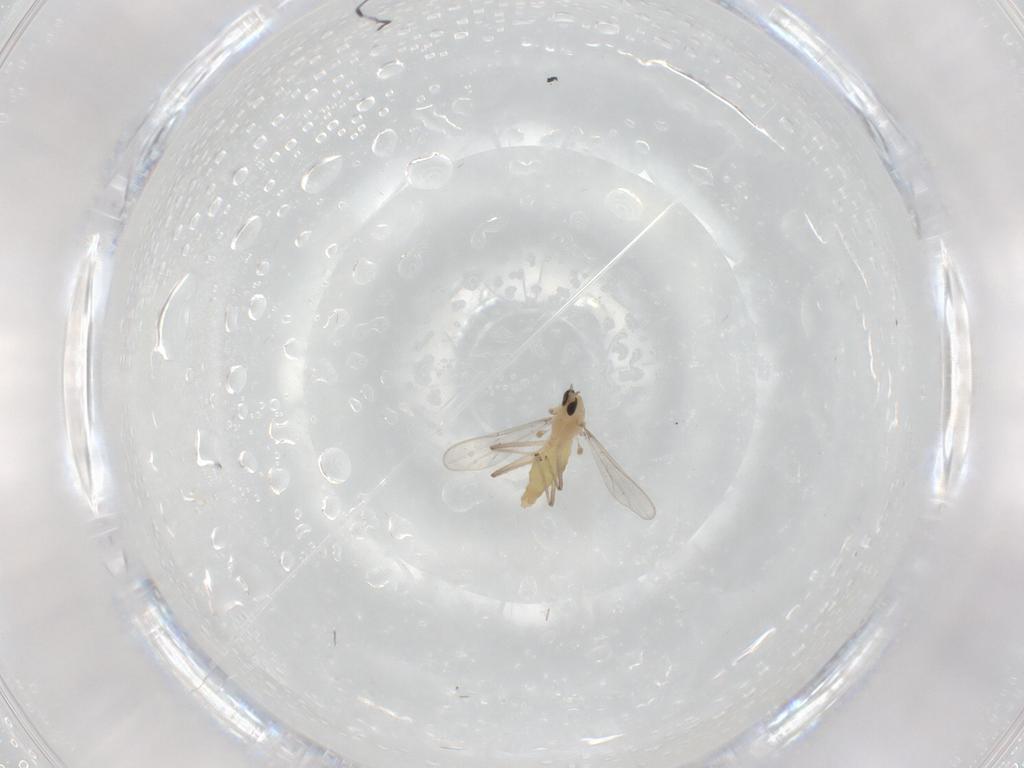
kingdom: Animalia
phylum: Arthropoda
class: Insecta
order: Diptera
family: Chironomidae
